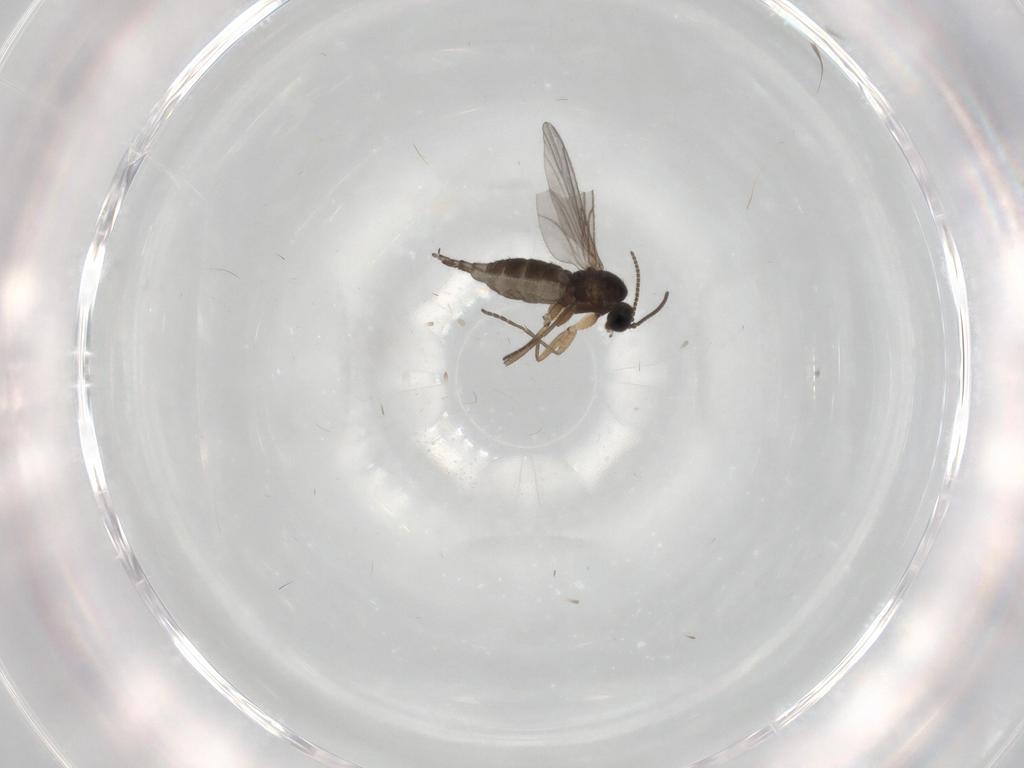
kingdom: Animalia
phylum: Arthropoda
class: Insecta
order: Diptera
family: Sciaridae
